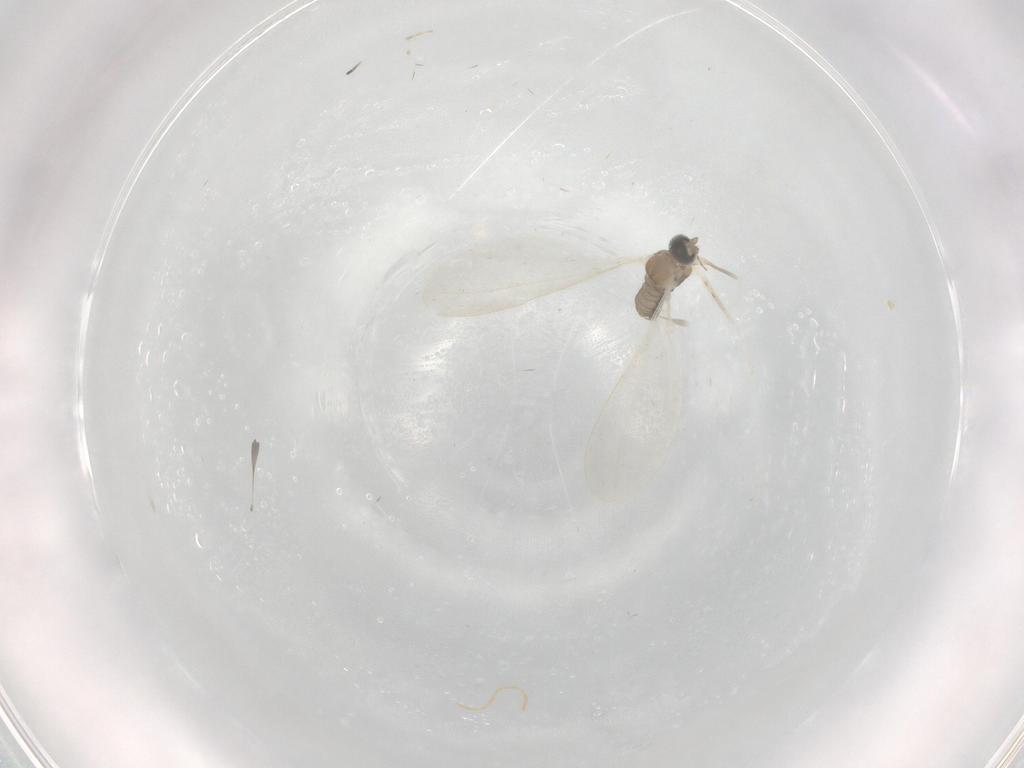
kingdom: Animalia
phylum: Arthropoda
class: Insecta
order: Diptera
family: Cecidomyiidae
